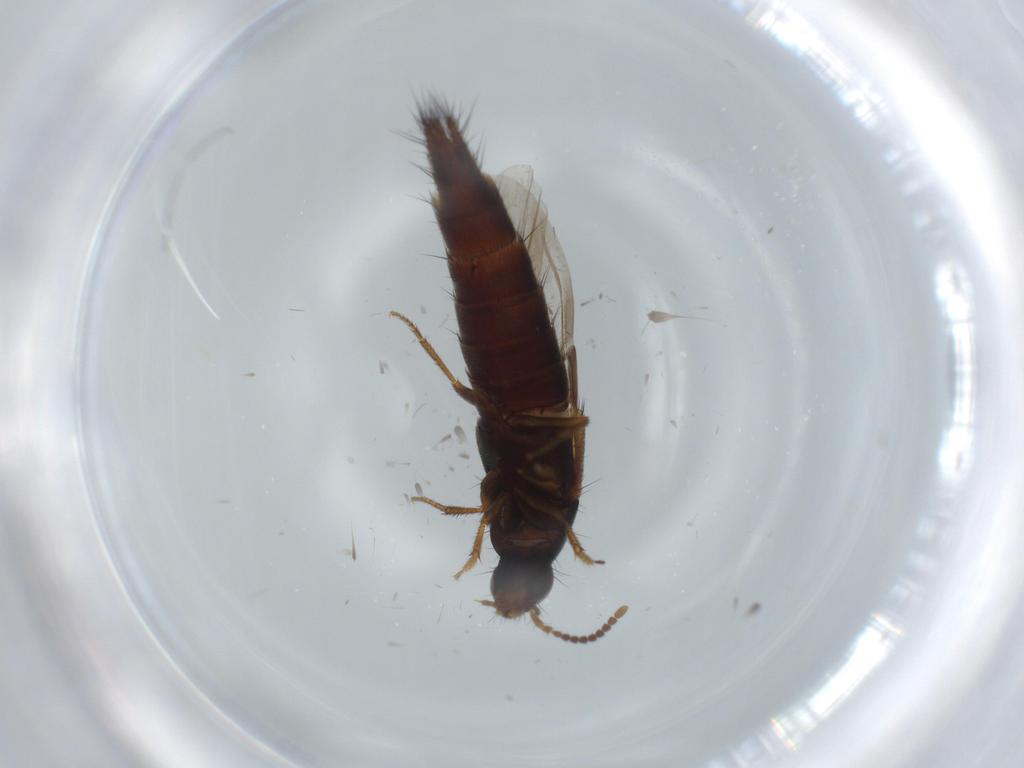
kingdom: Animalia
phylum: Arthropoda
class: Insecta
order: Coleoptera
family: Staphylinidae
